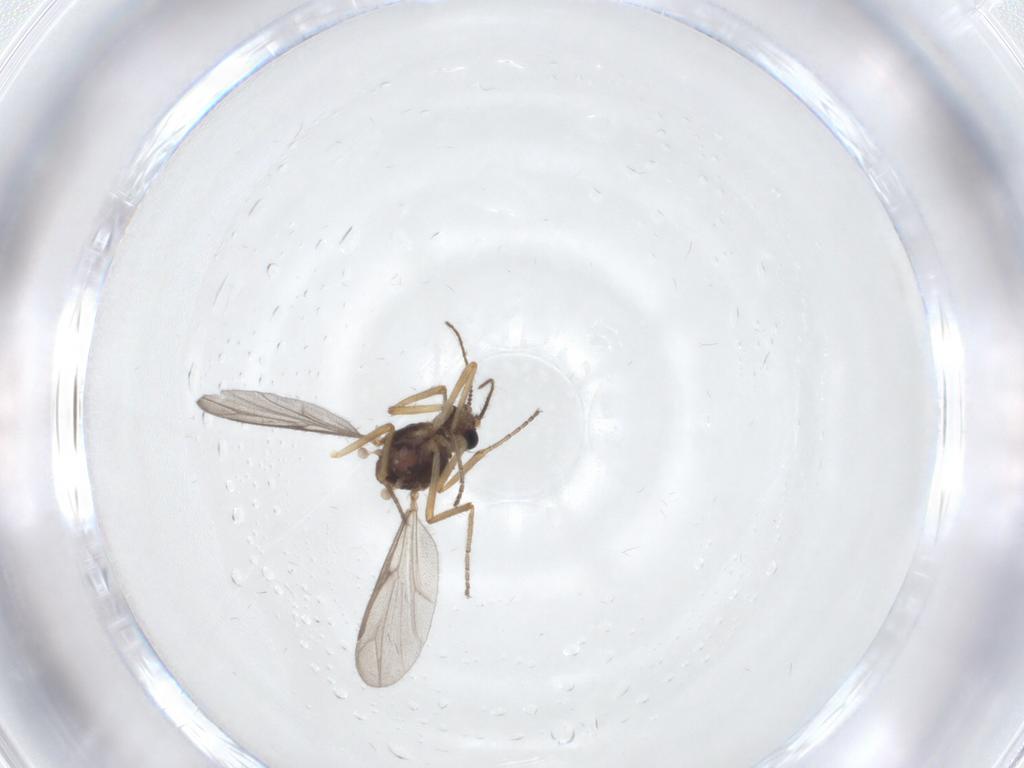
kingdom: Animalia
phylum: Arthropoda
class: Insecta
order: Diptera
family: Ceratopogonidae
